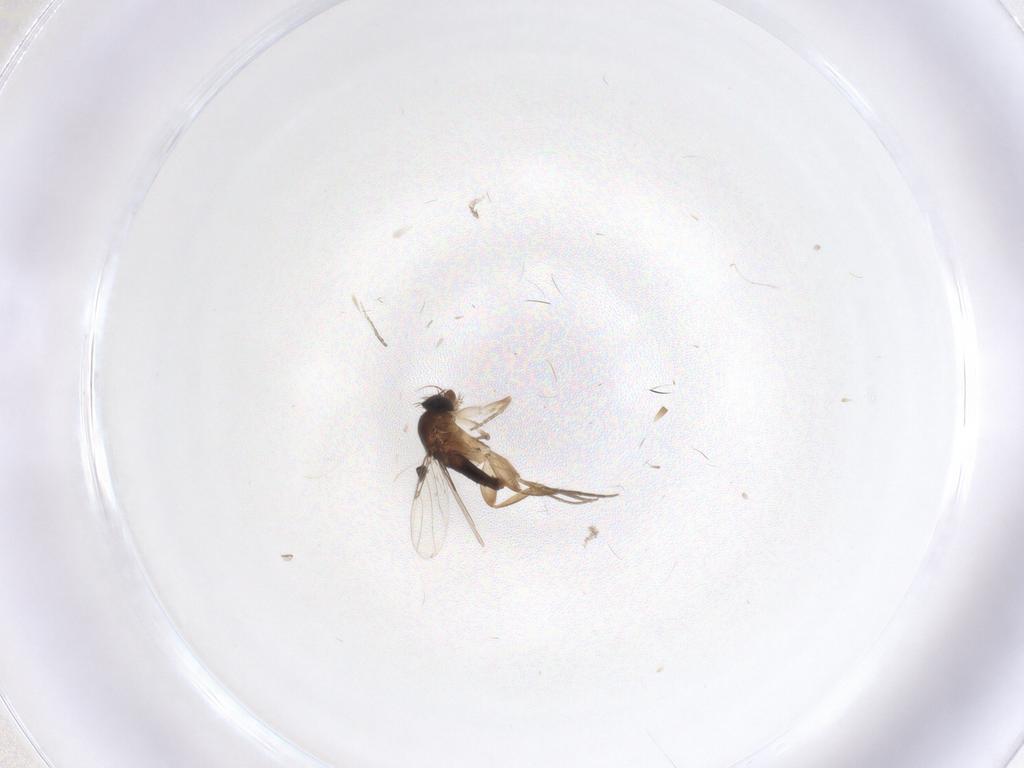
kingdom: Animalia
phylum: Arthropoda
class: Insecta
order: Diptera
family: Phoridae
